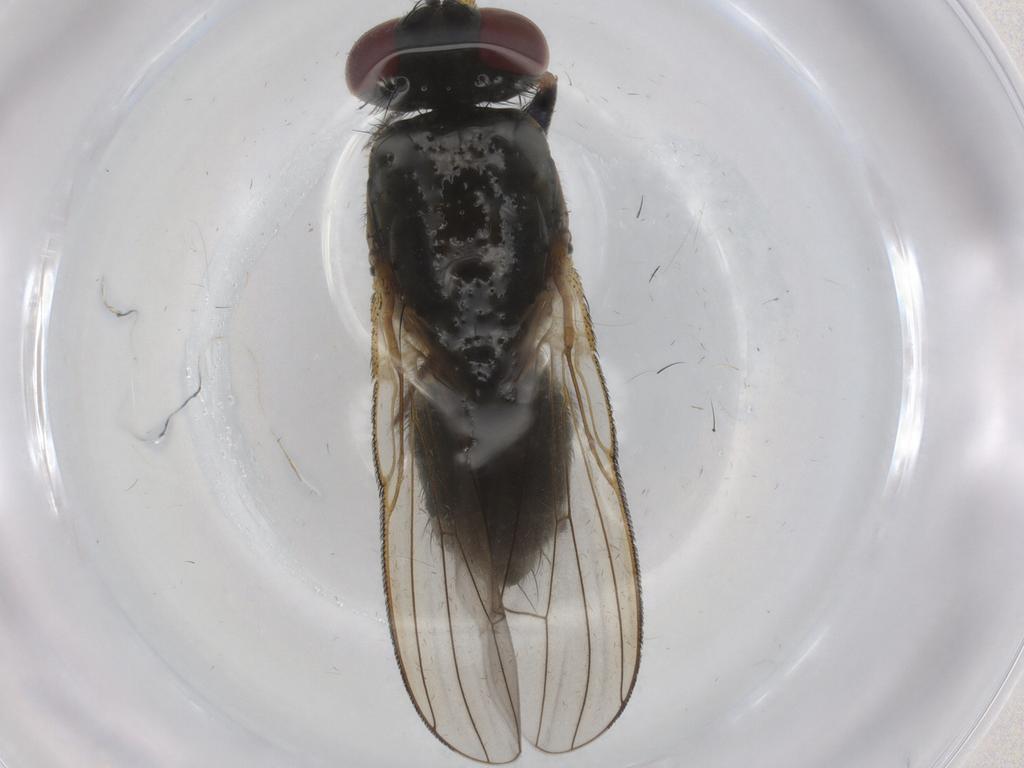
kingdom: Animalia
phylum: Arthropoda
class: Insecta
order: Diptera
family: Muscidae
